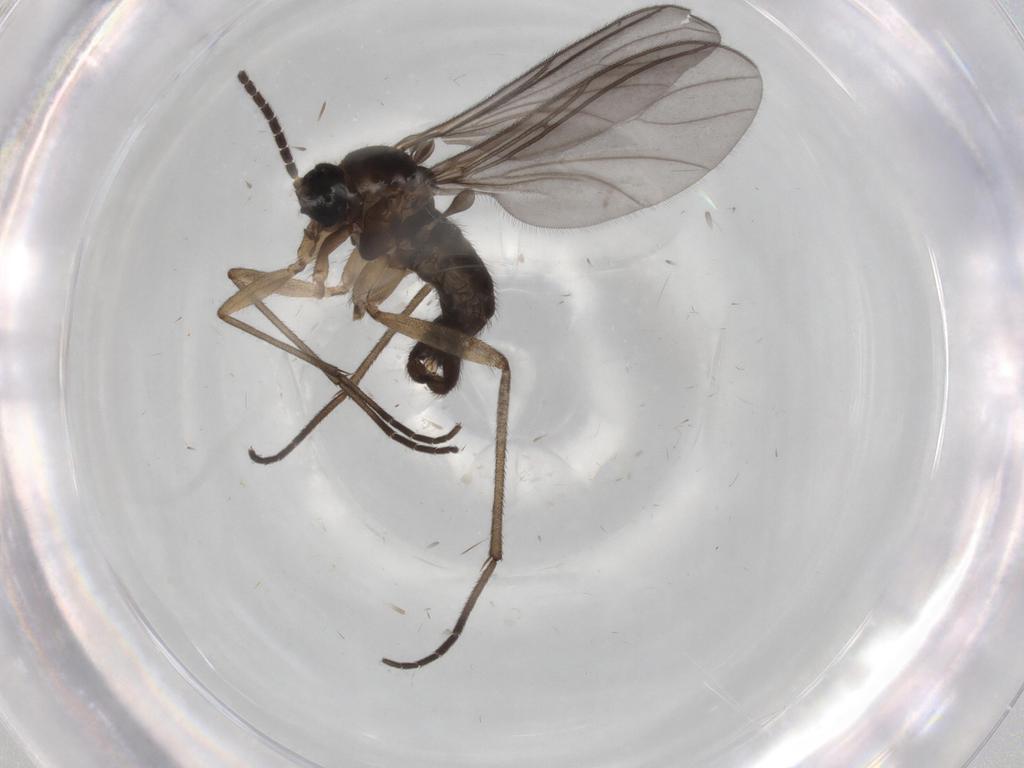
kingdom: Animalia
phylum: Arthropoda
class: Insecta
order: Diptera
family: Sciaridae
